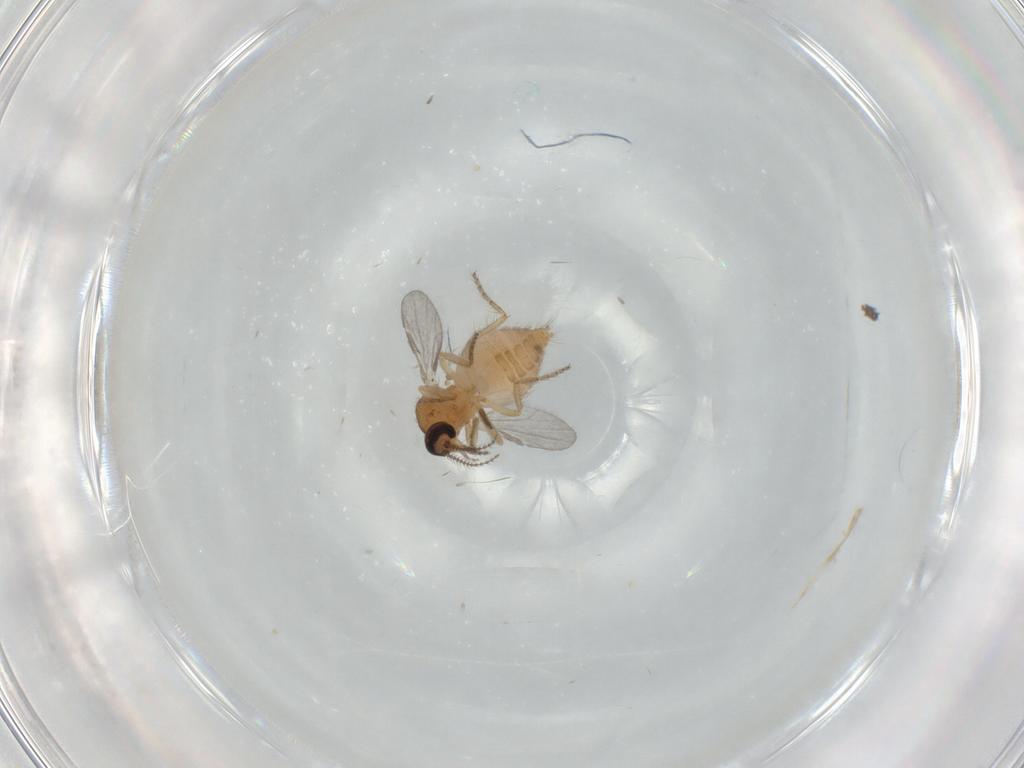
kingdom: Animalia
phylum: Arthropoda
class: Insecta
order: Diptera
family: Ceratopogonidae
